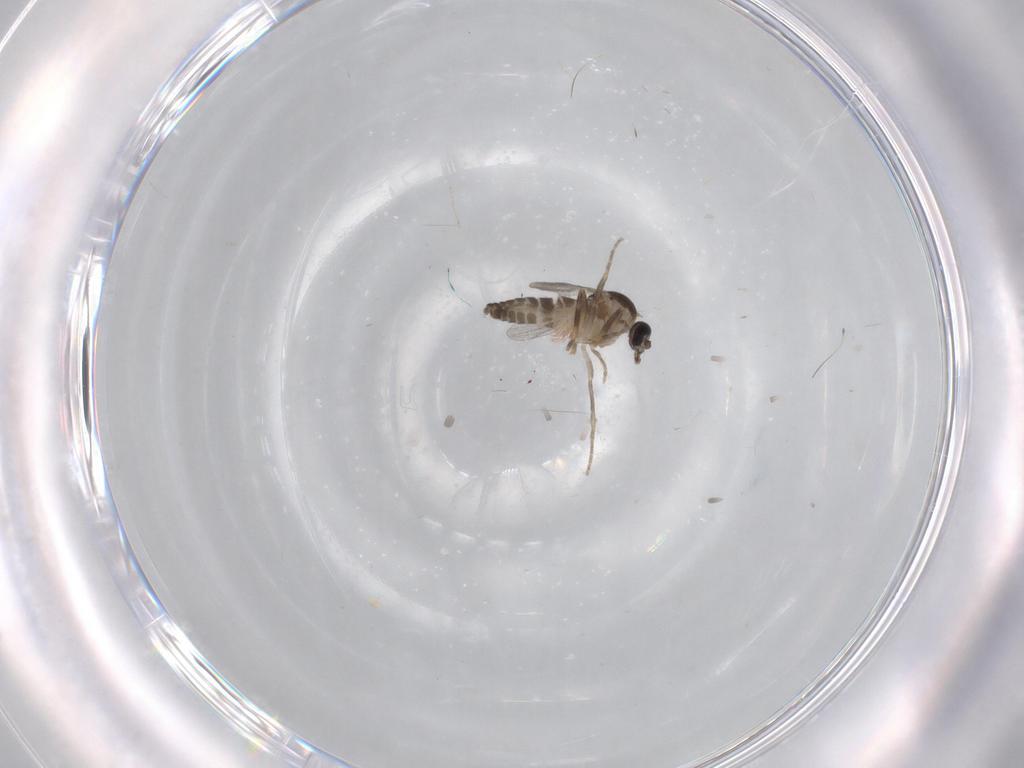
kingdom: Animalia
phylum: Arthropoda
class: Insecta
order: Diptera
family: Ceratopogonidae
